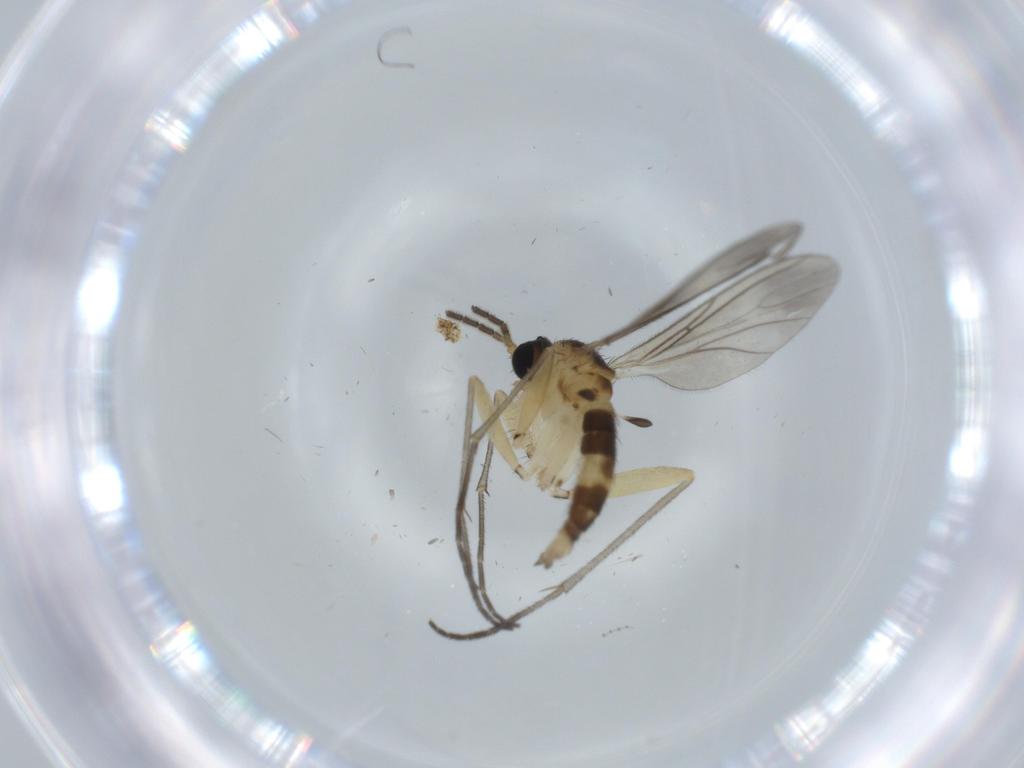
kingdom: Animalia
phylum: Arthropoda
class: Insecta
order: Diptera
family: Sciaridae
